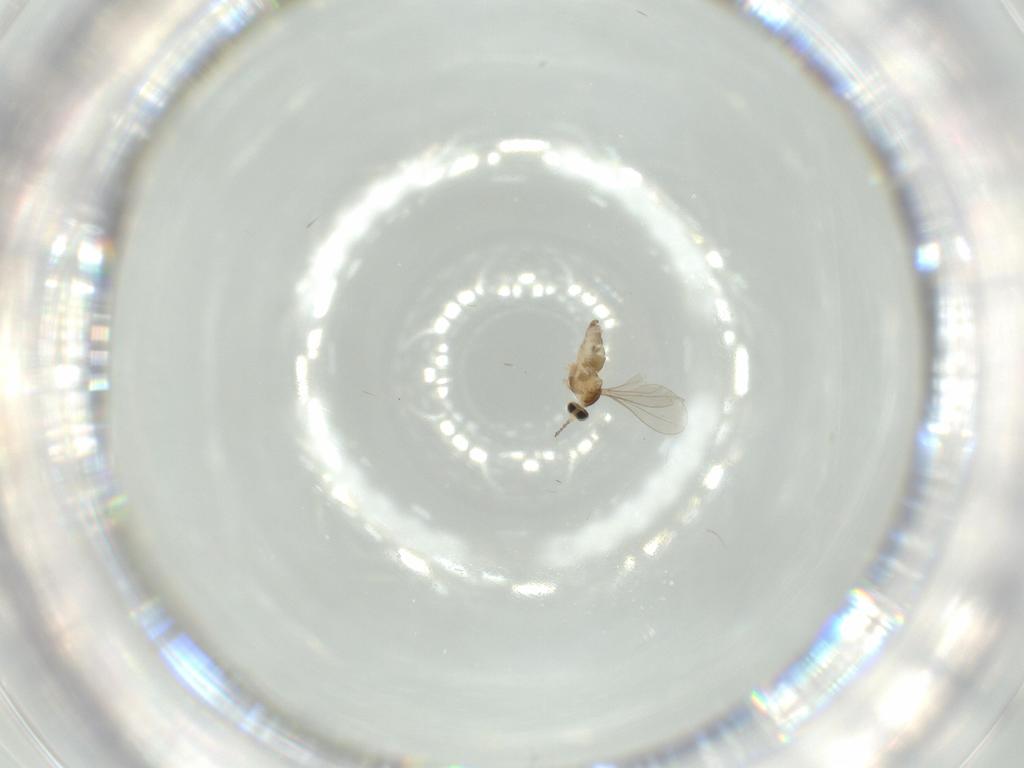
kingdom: Animalia
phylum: Arthropoda
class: Insecta
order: Diptera
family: Cecidomyiidae
